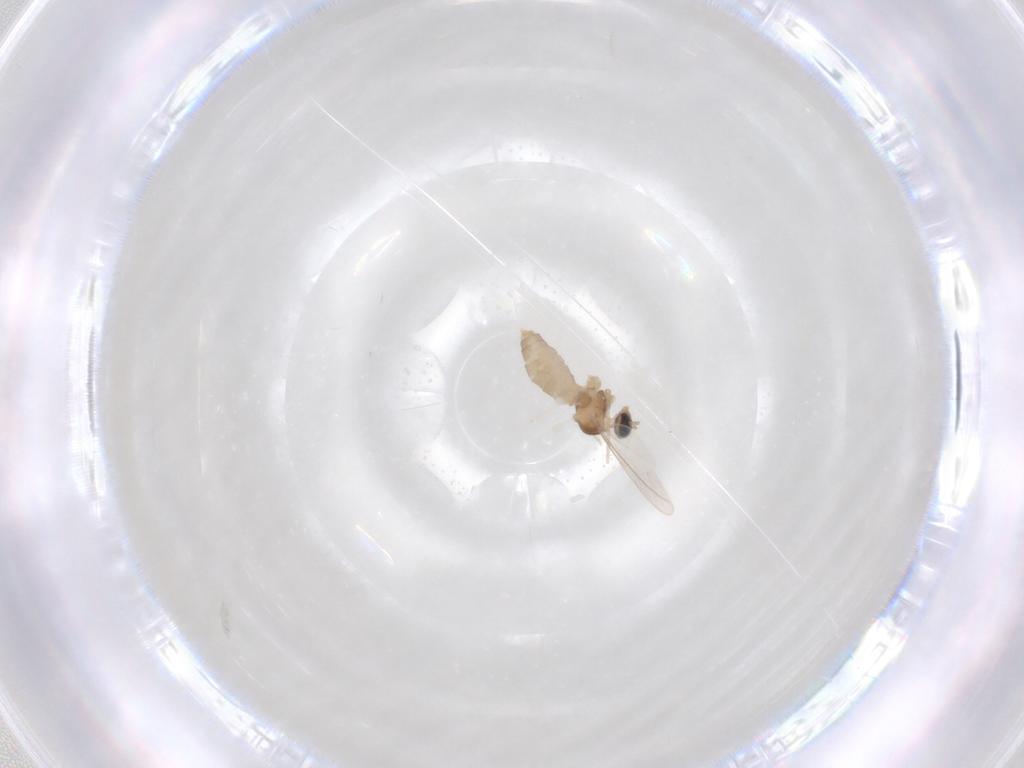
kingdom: Animalia
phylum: Arthropoda
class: Insecta
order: Diptera
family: Cecidomyiidae
